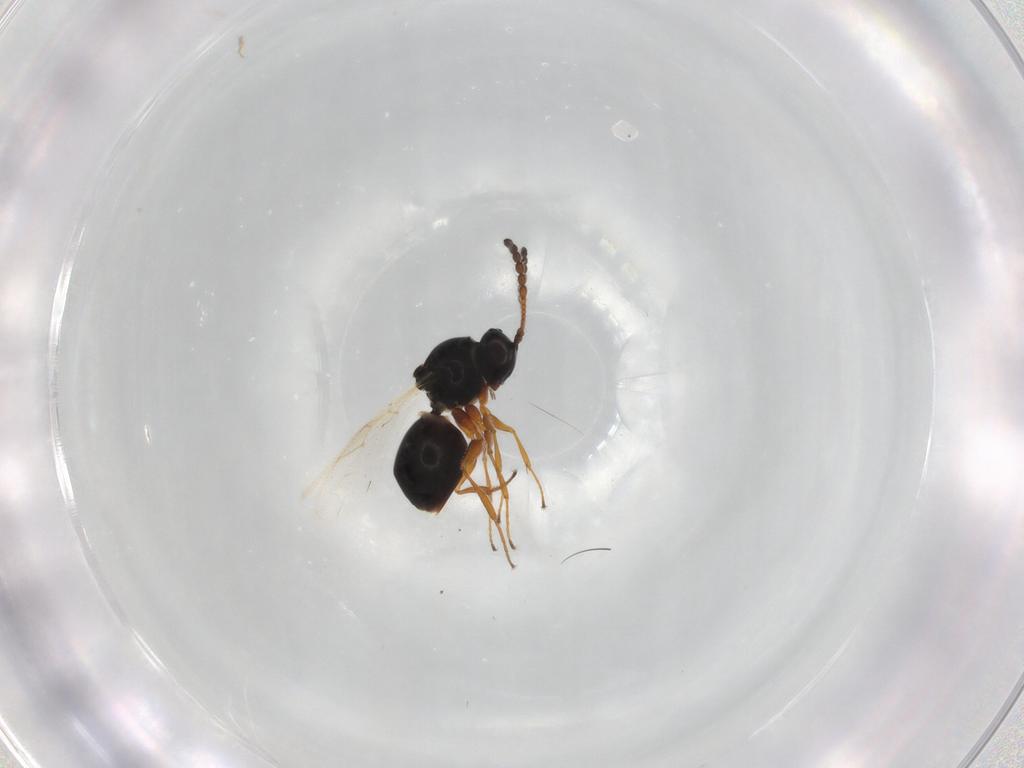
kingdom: Animalia
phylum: Arthropoda
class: Insecta
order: Hymenoptera
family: Figitidae
